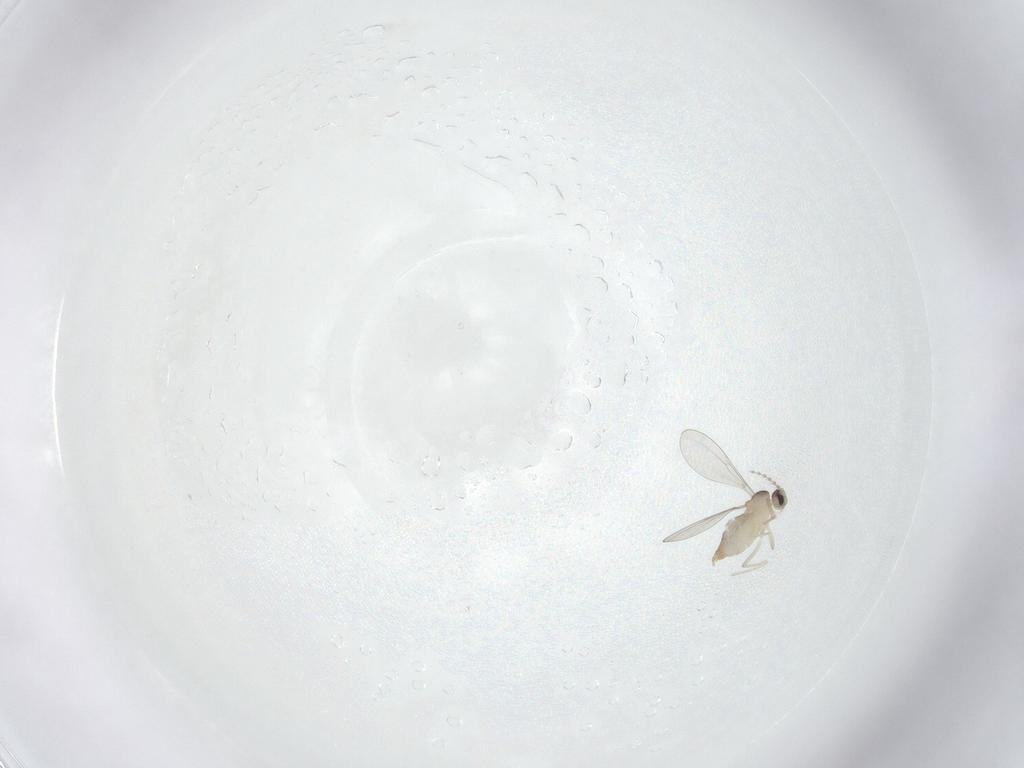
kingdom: Animalia
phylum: Arthropoda
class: Insecta
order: Diptera
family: Cecidomyiidae
